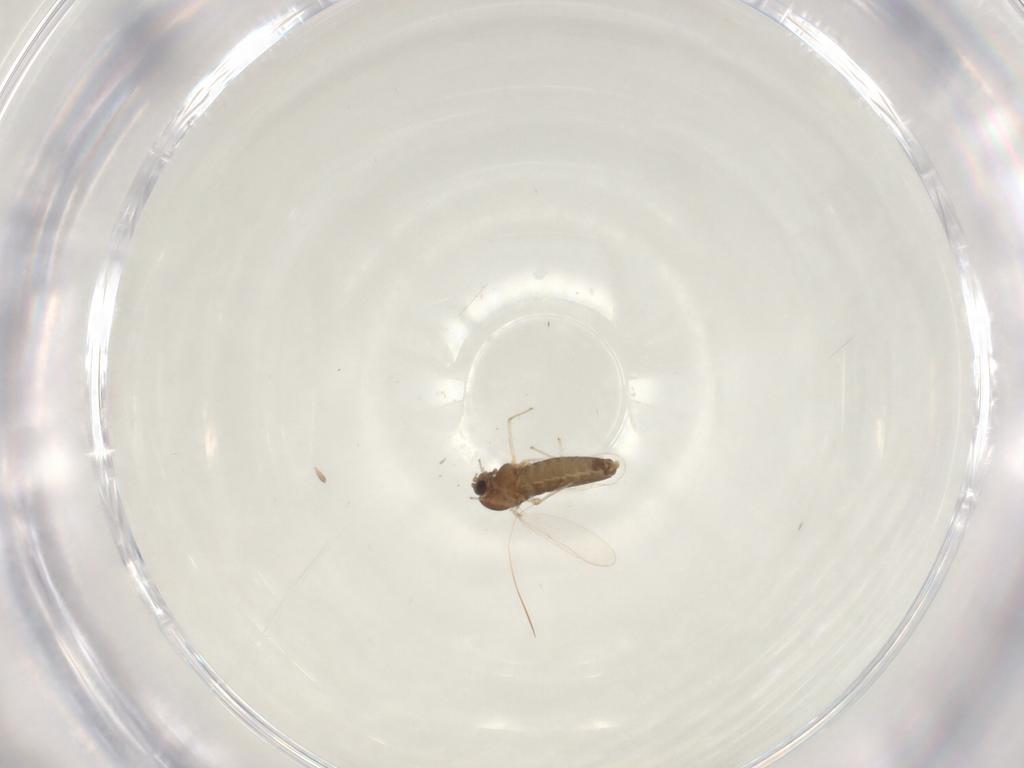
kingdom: Animalia
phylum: Arthropoda
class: Insecta
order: Diptera
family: Chironomidae
